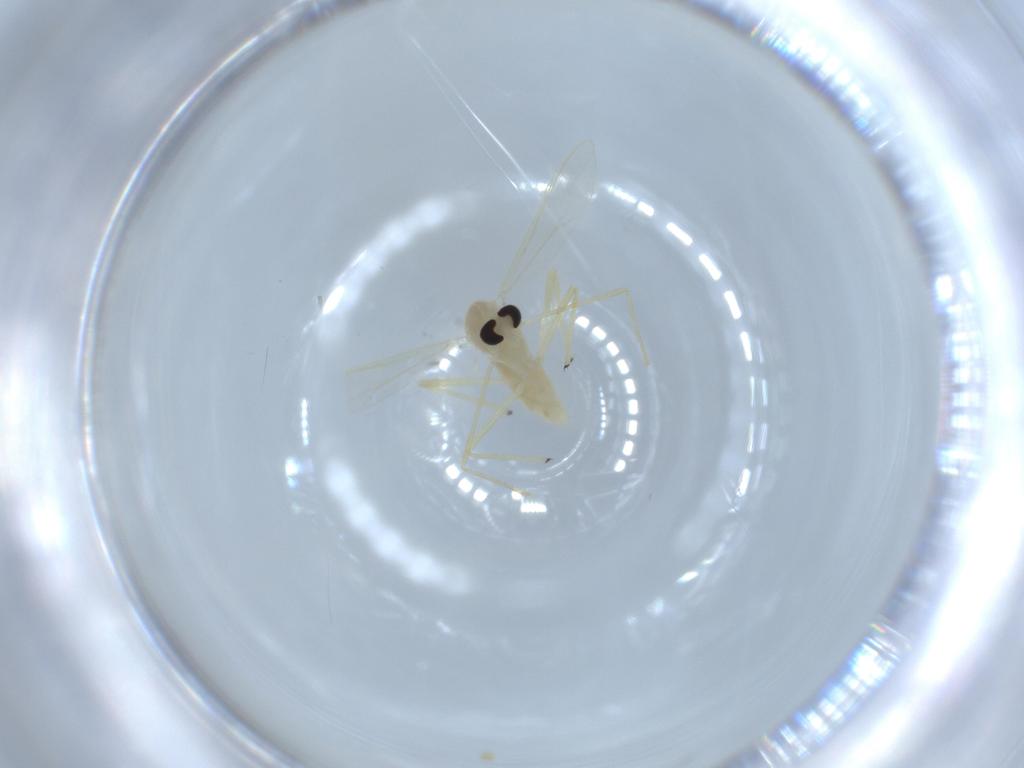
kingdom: Animalia
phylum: Arthropoda
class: Insecta
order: Diptera
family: Chironomidae
